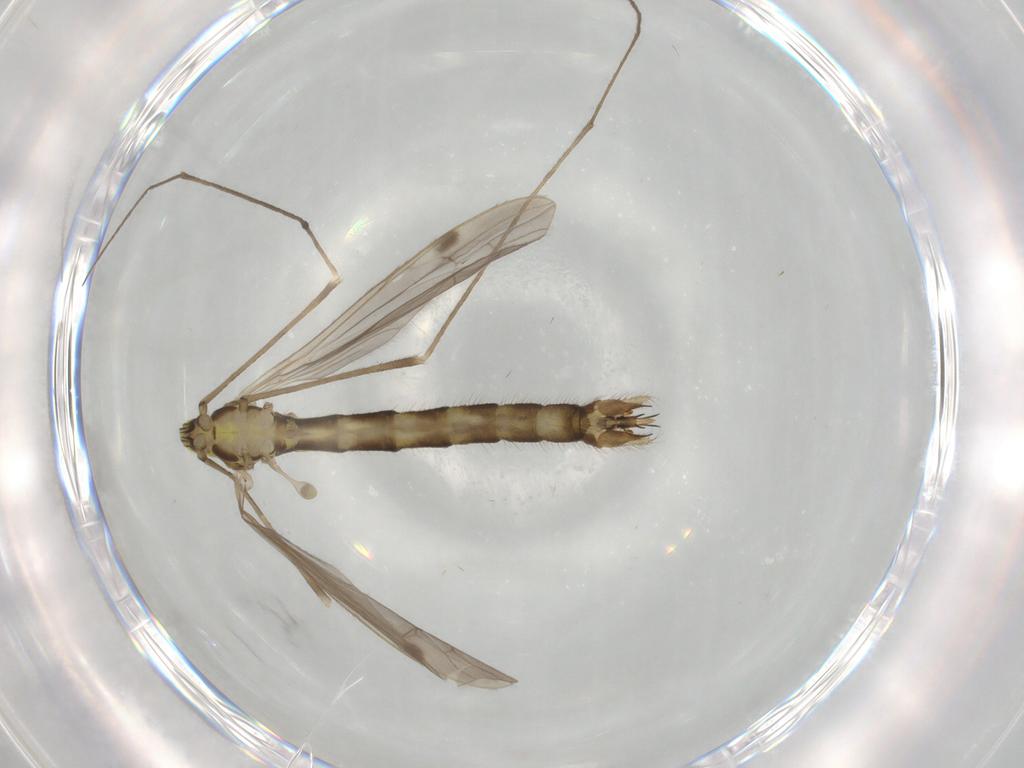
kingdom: Animalia
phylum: Arthropoda
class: Insecta
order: Diptera
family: Limoniidae
